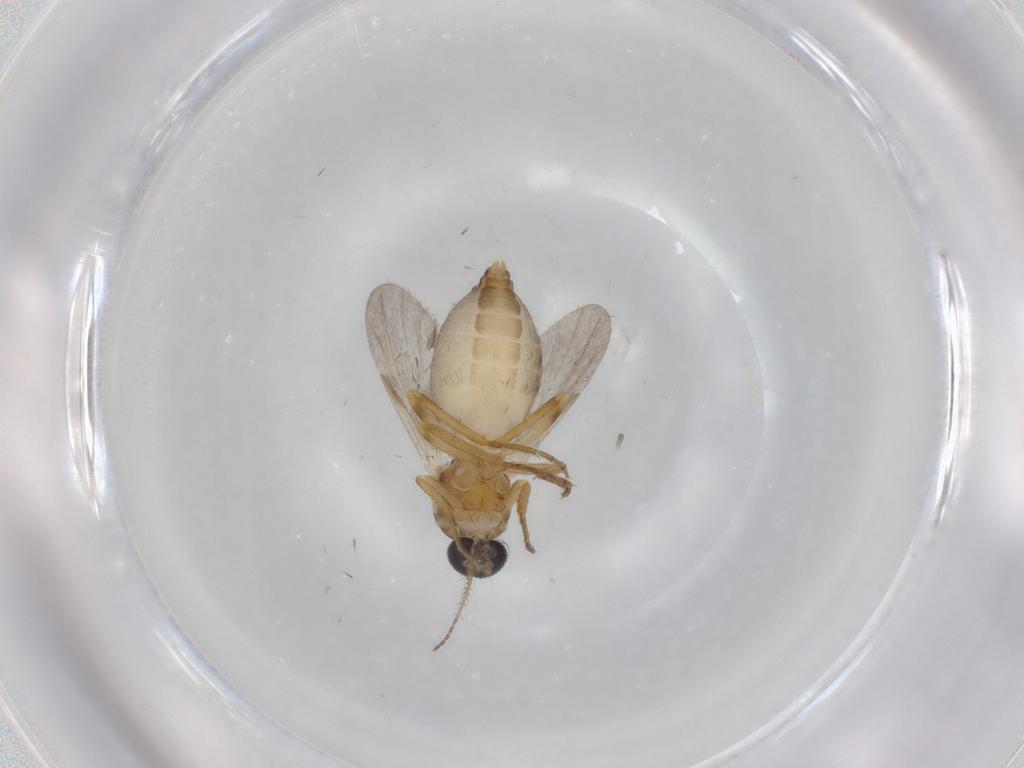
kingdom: Animalia
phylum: Arthropoda
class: Insecta
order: Diptera
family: Ceratopogonidae
